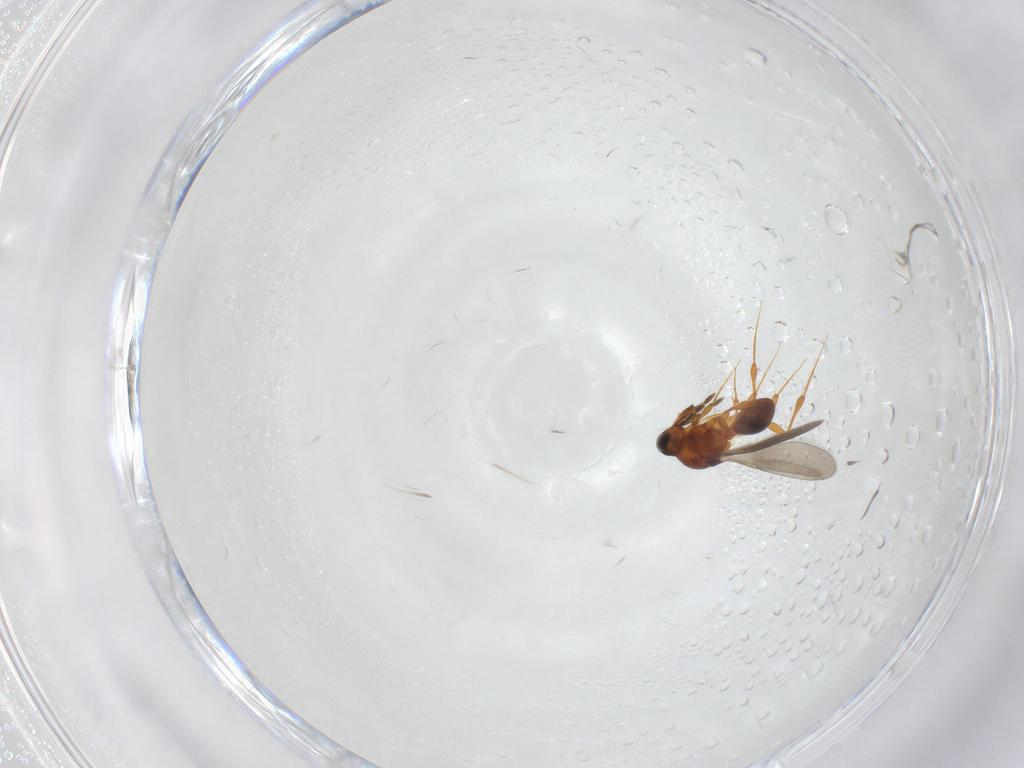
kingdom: Animalia
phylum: Arthropoda
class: Insecta
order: Hymenoptera
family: Platygastridae
